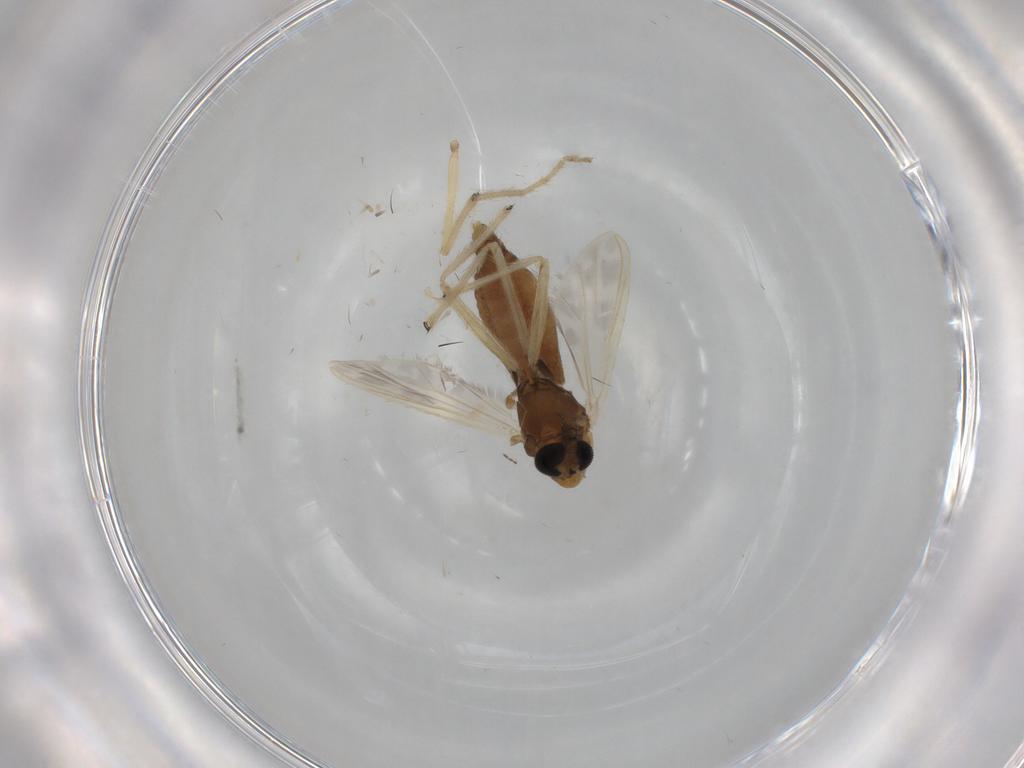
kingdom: Animalia
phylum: Arthropoda
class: Insecta
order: Diptera
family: Chironomidae
